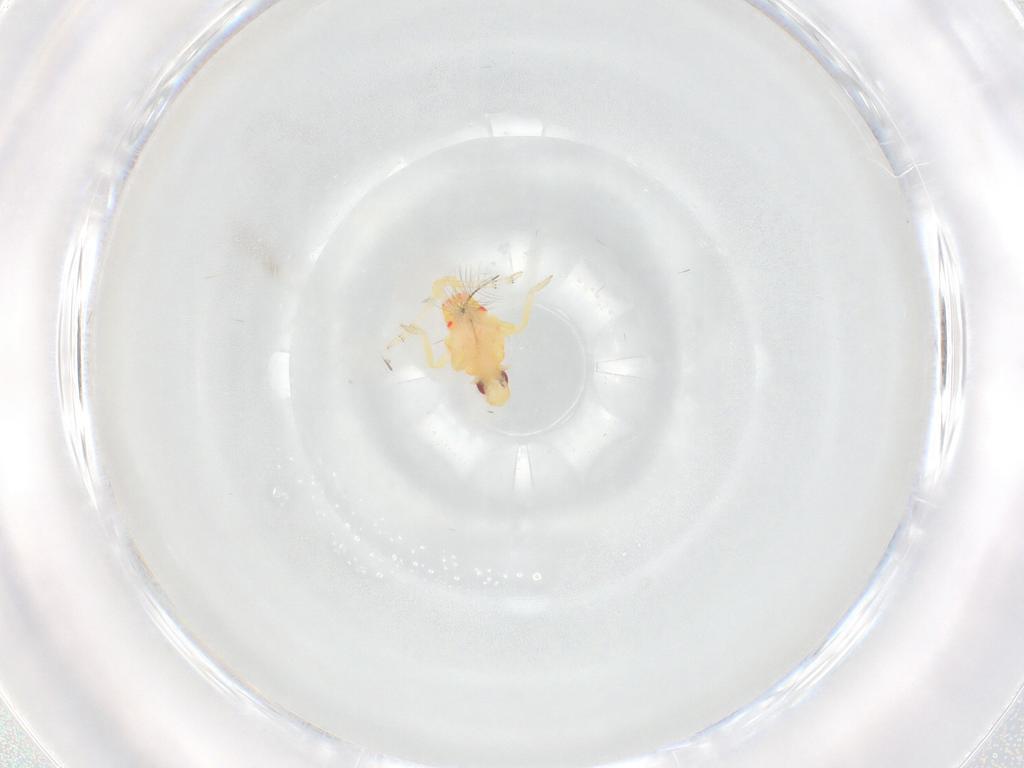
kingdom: Animalia
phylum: Arthropoda
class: Insecta
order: Hemiptera
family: Tropiduchidae
